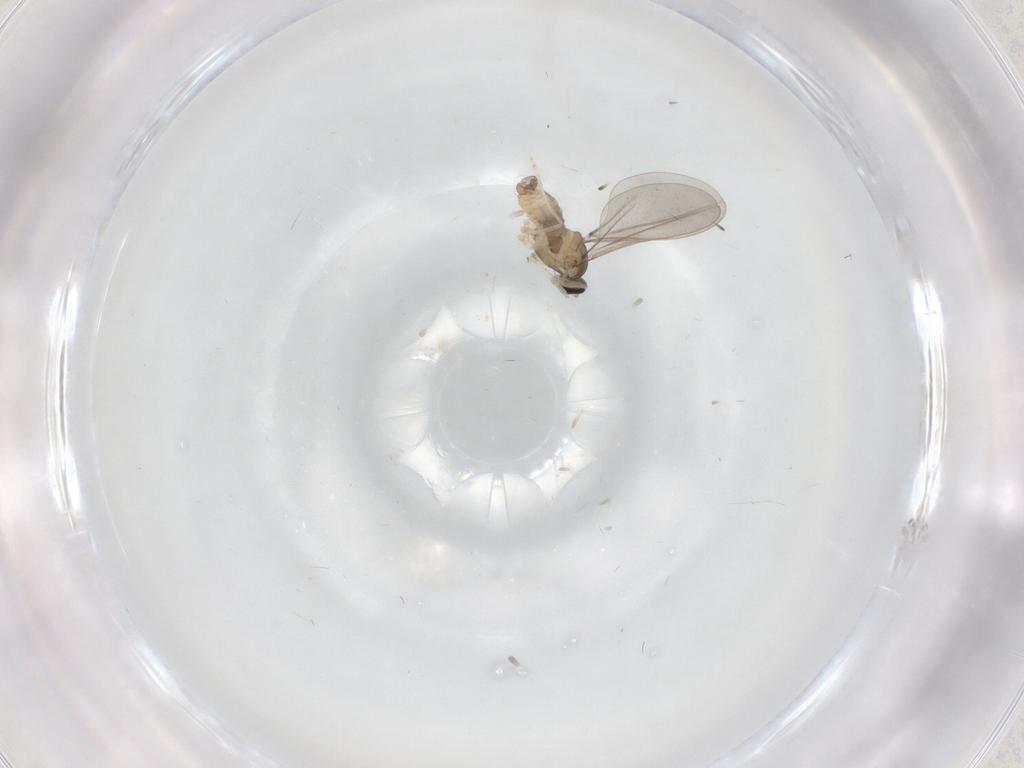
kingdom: Animalia
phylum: Arthropoda
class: Insecta
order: Diptera
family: Cecidomyiidae
